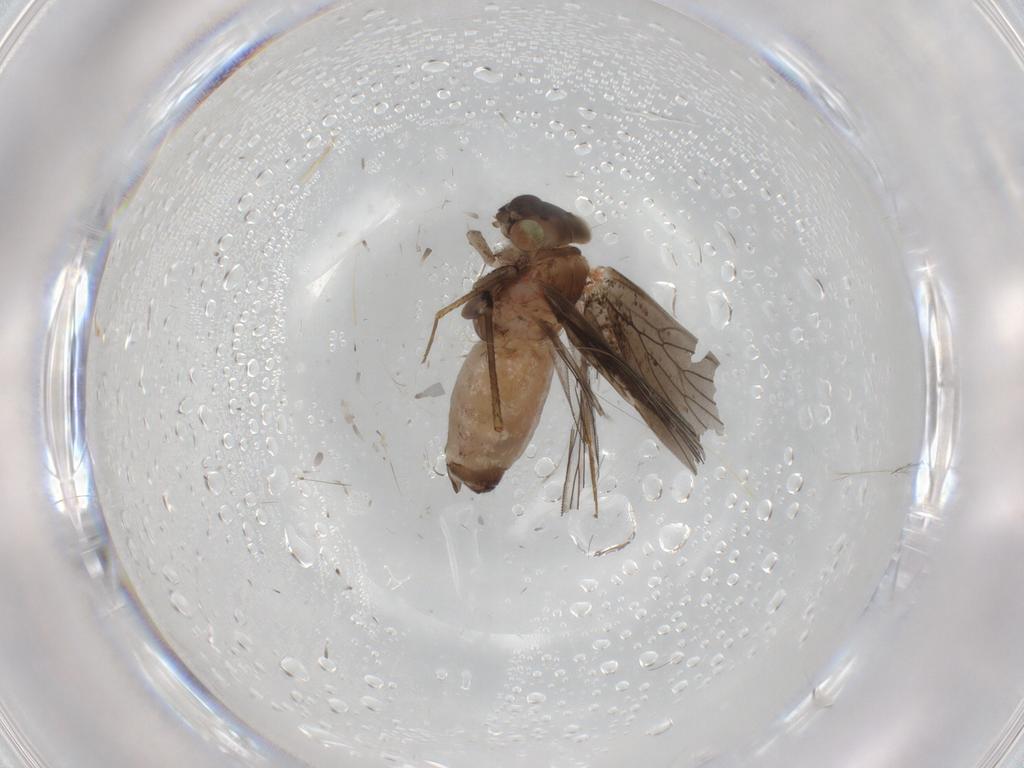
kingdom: Animalia
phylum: Arthropoda
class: Insecta
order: Psocodea
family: Lepidopsocidae
